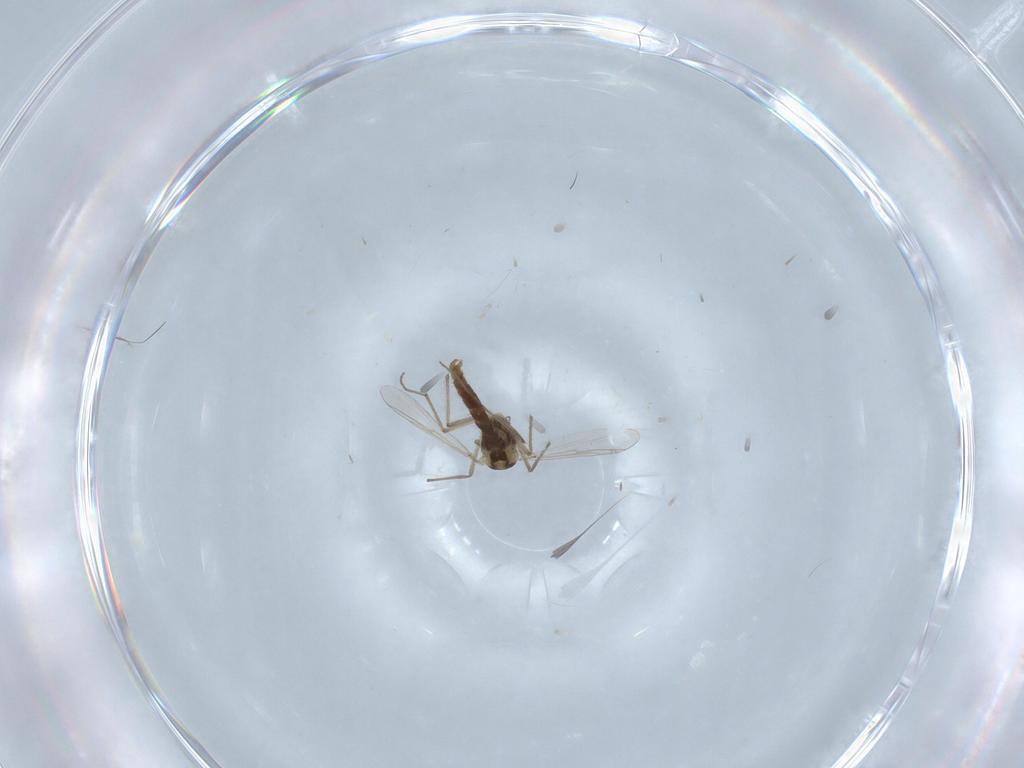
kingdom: Animalia
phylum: Arthropoda
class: Insecta
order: Diptera
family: Chironomidae
